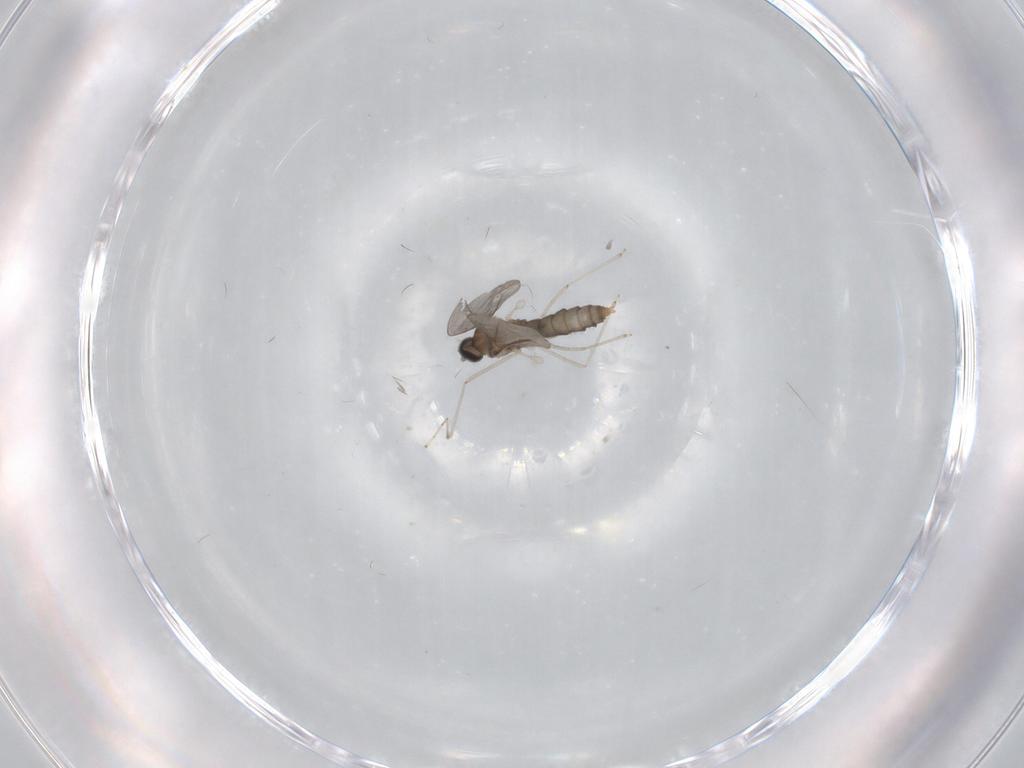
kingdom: Animalia
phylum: Arthropoda
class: Insecta
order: Diptera
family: Cecidomyiidae
